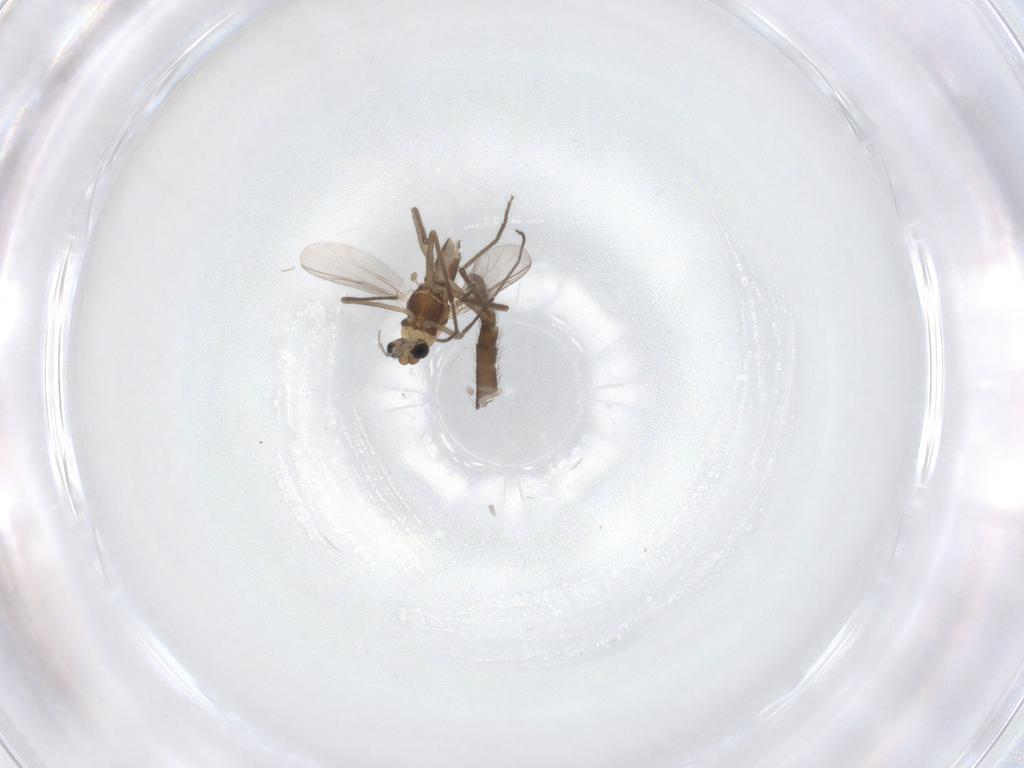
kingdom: Animalia
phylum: Arthropoda
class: Insecta
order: Diptera
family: Chironomidae
